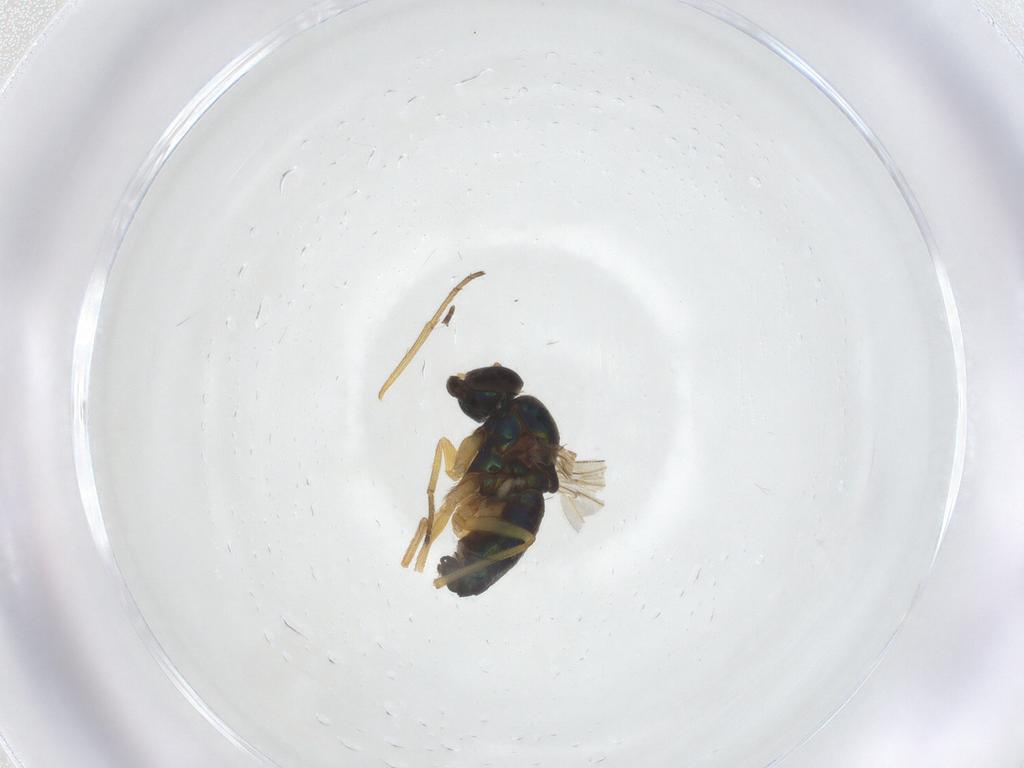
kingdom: Animalia
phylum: Arthropoda
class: Insecta
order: Diptera
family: Dolichopodidae
